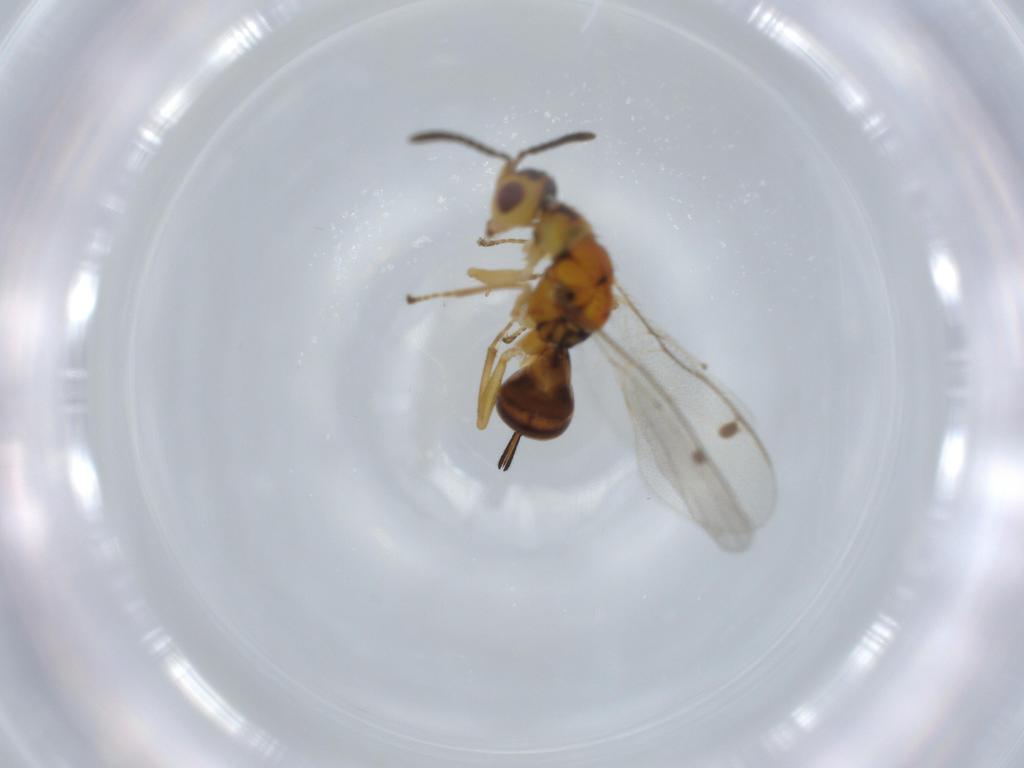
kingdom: Animalia
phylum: Arthropoda
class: Insecta
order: Hymenoptera
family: Megastigmidae
